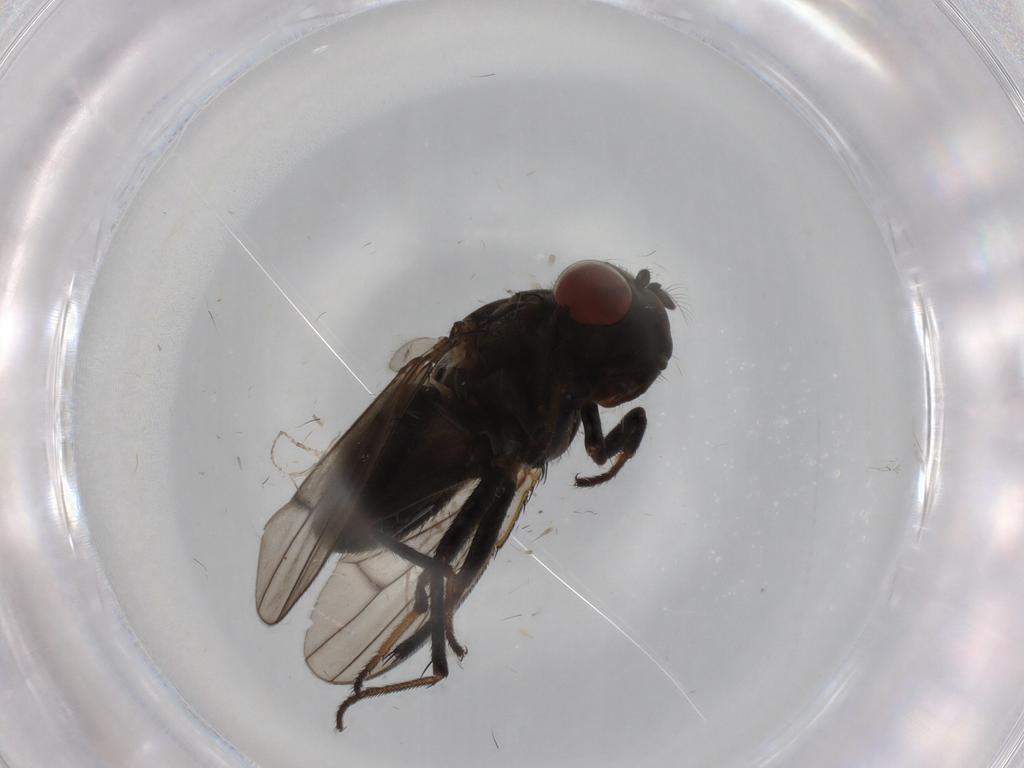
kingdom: Animalia
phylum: Arthropoda
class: Insecta
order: Diptera
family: Ephydridae
